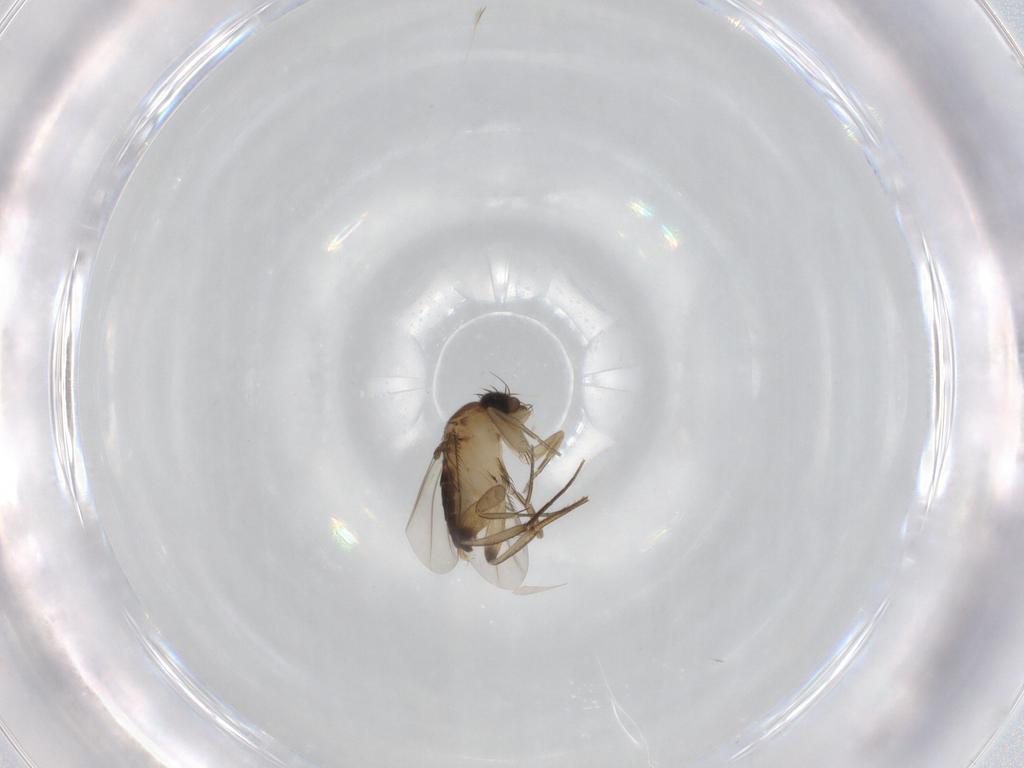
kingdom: Animalia
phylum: Arthropoda
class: Insecta
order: Diptera
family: Phoridae
